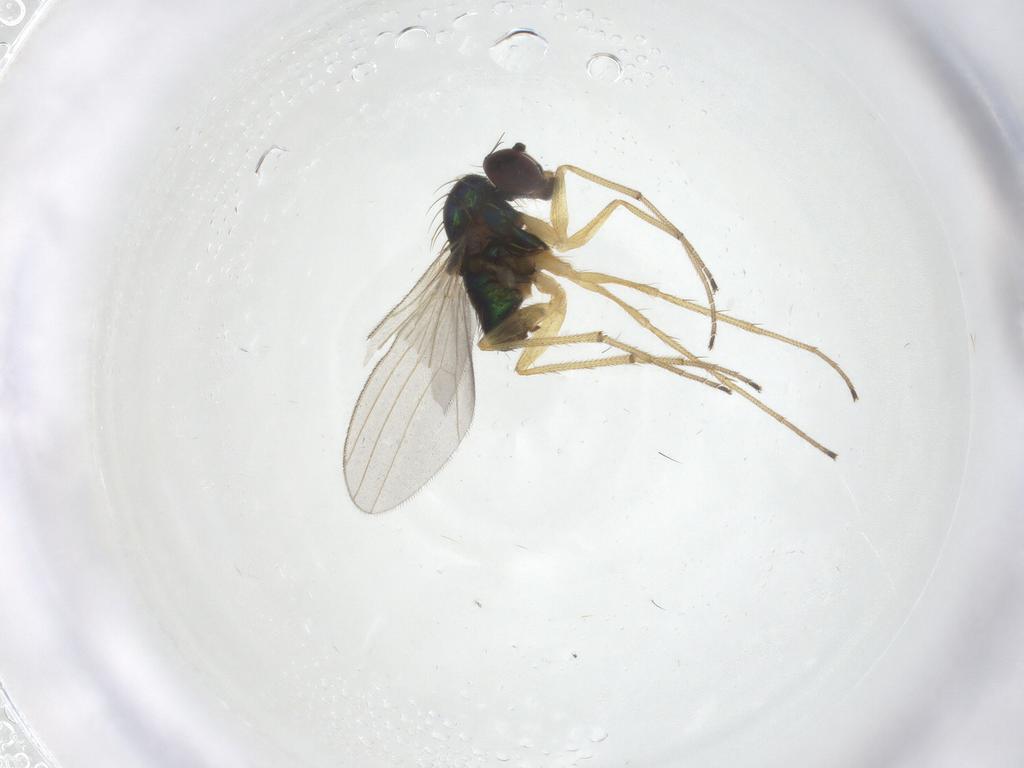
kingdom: Animalia
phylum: Arthropoda
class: Insecta
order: Diptera
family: Dolichopodidae
